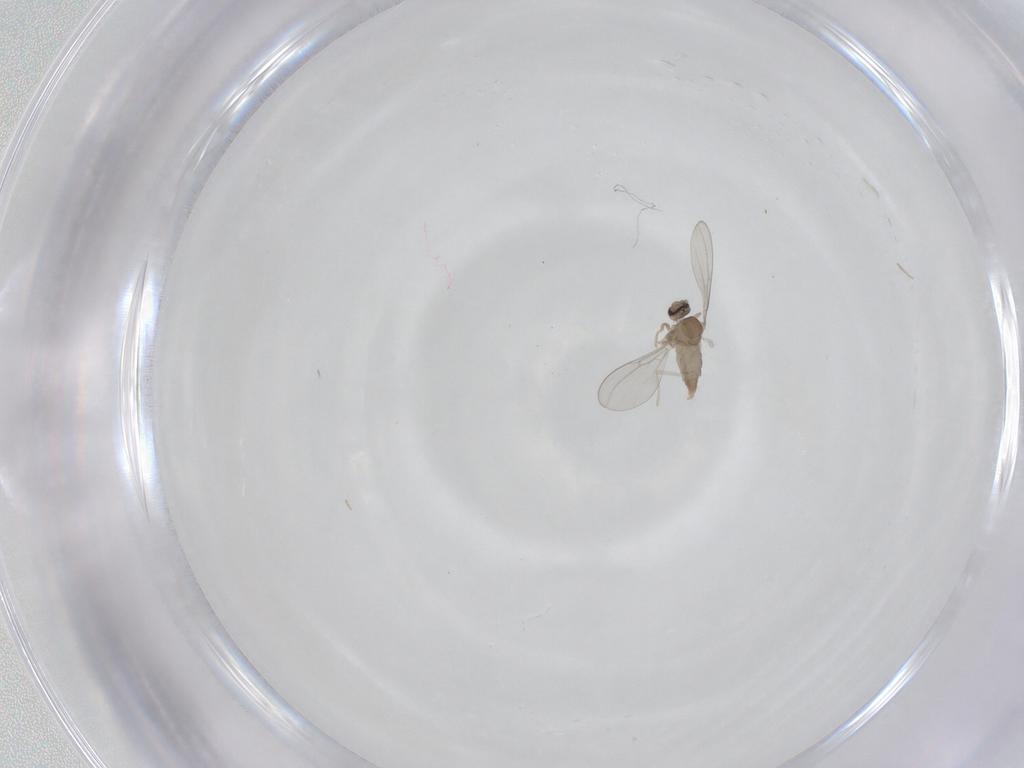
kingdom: Animalia
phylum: Arthropoda
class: Insecta
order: Diptera
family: Cecidomyiidae
